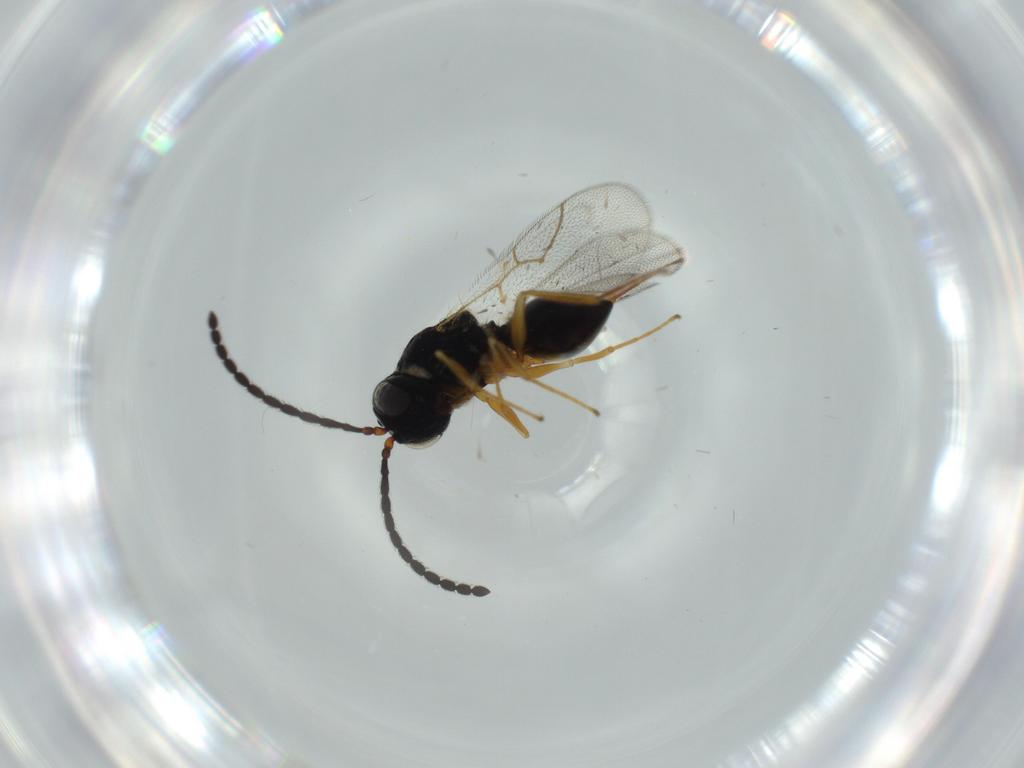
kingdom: Animalia
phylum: Arthropoda
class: Insecta
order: Hymenoptera
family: Figitidae
